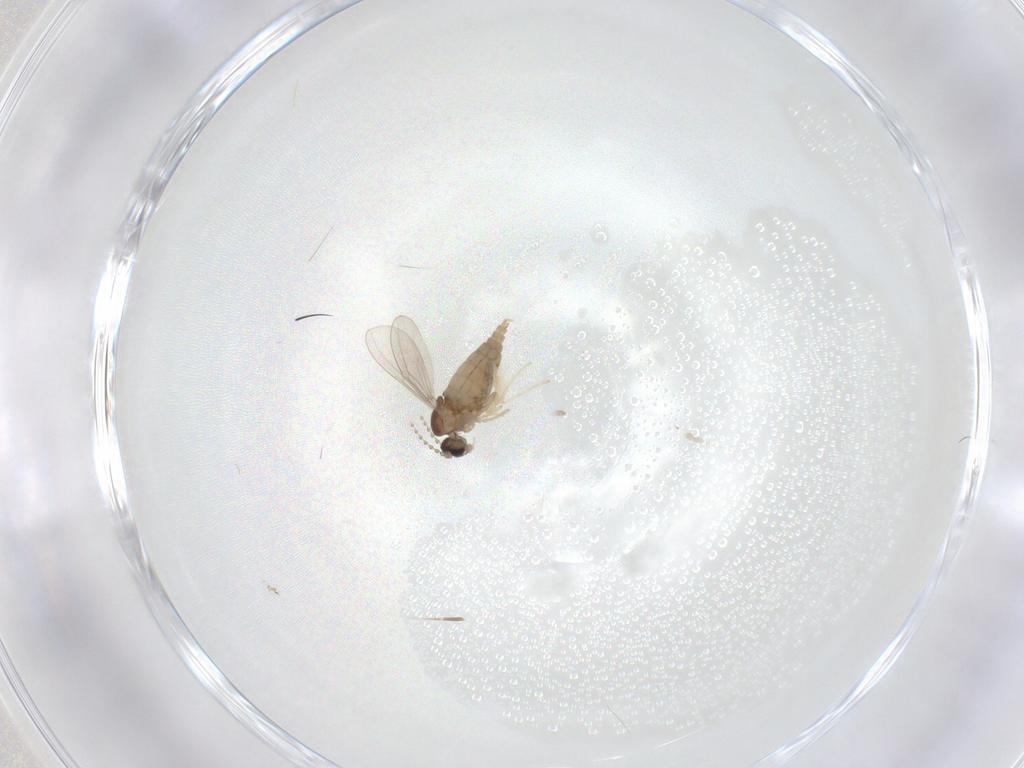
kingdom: Animalia
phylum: Arthropoda
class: Insecta
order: Diptera
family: Cecidomyiidae
